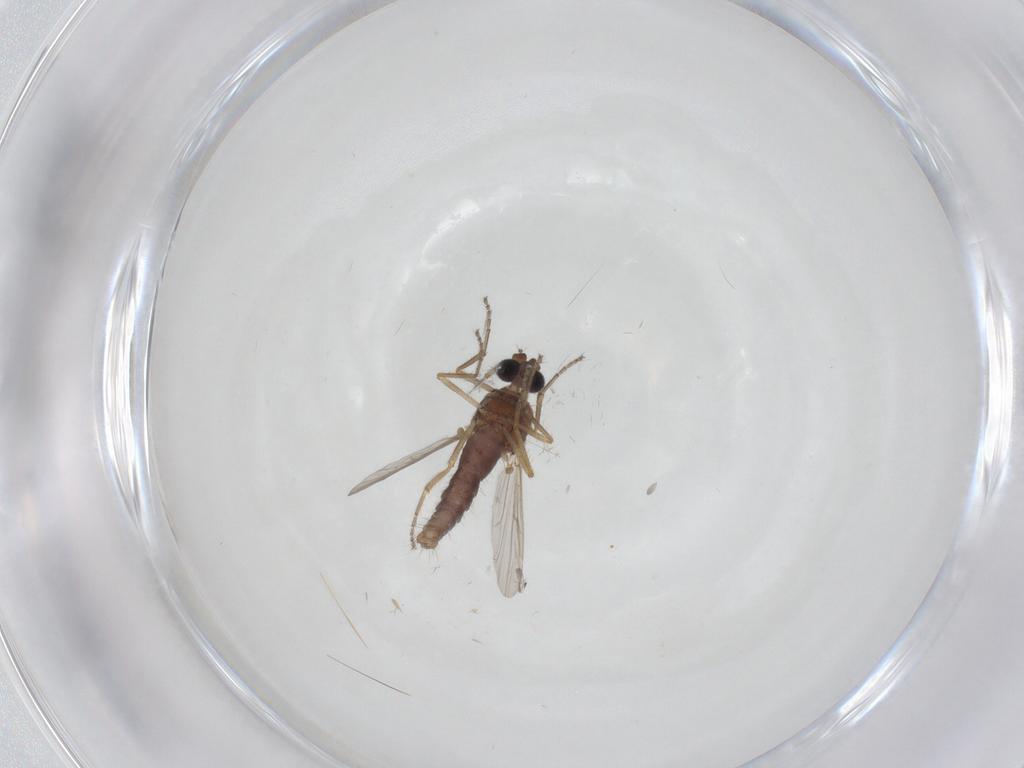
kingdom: Animalia
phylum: Arthropoda
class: Insecta
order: Diptera
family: Ceratopogonidae
